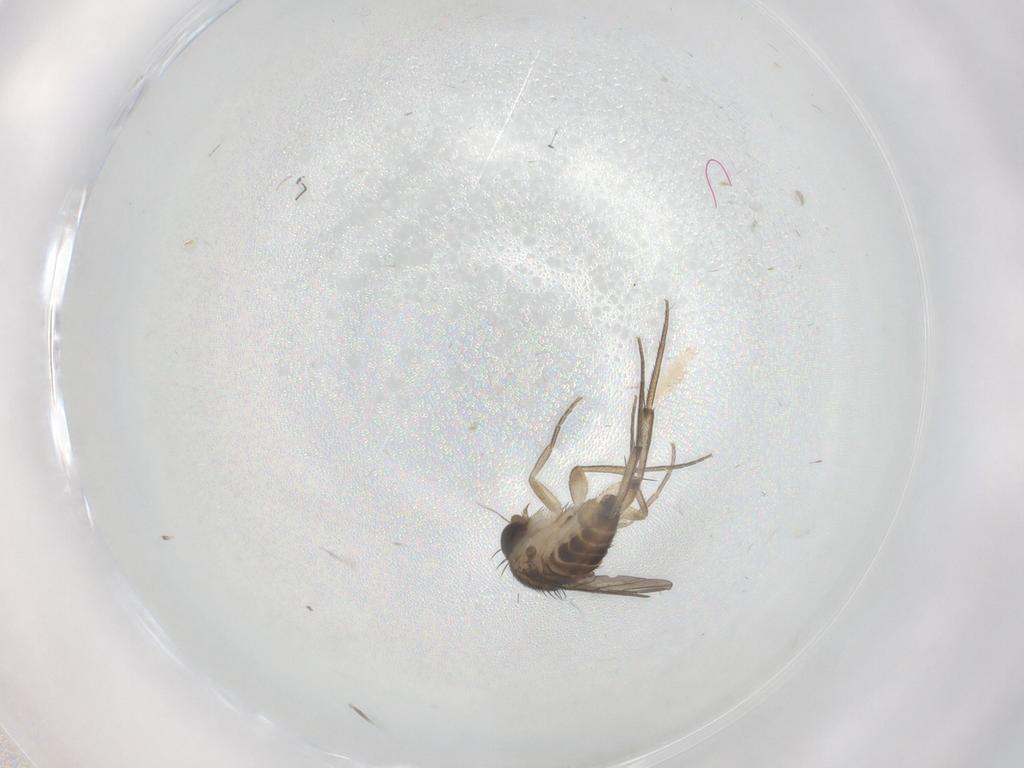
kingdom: Animalia
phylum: Arthropoda
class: Insecta
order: Diptera
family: Phoridae
